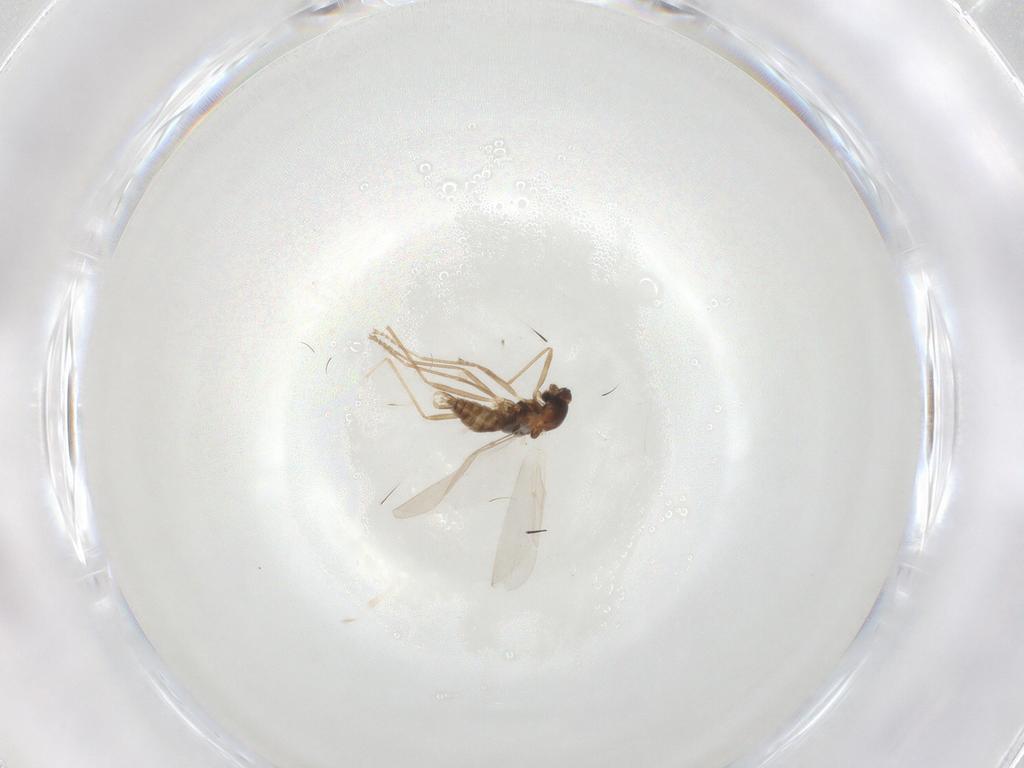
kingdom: Animalia
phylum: Arthropoda
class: Insecta
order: Diptera
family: Cecidomyiidae
